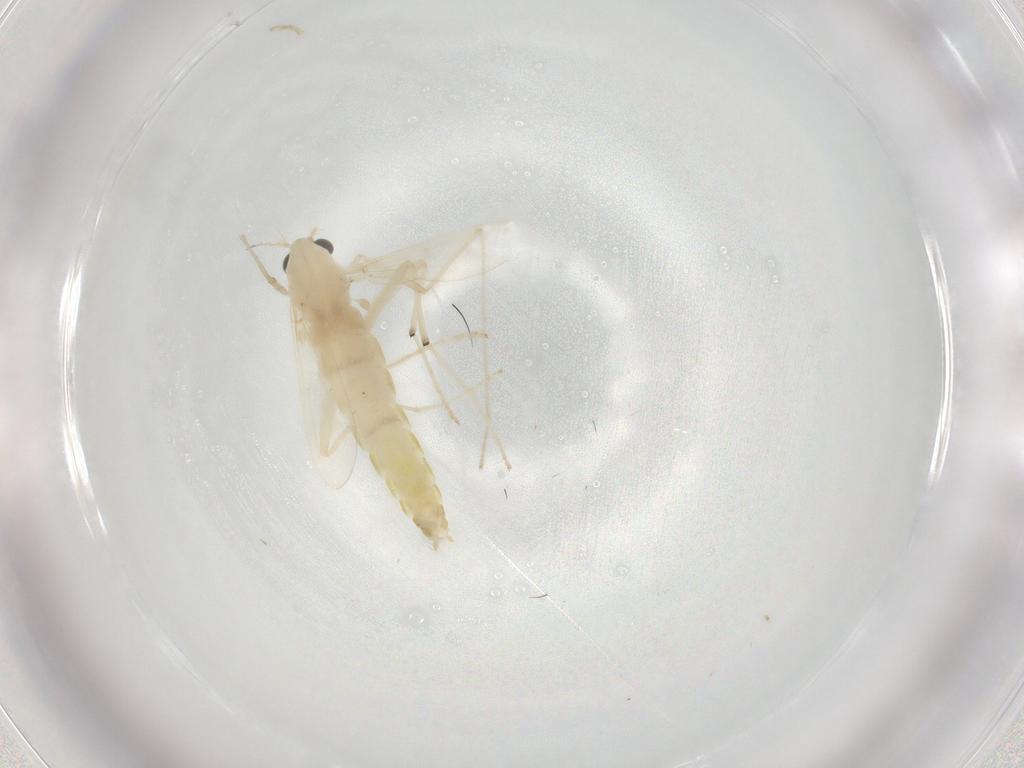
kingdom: Animalia
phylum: Arthropoda
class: Insecta
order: Diptera
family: Chironomidae
